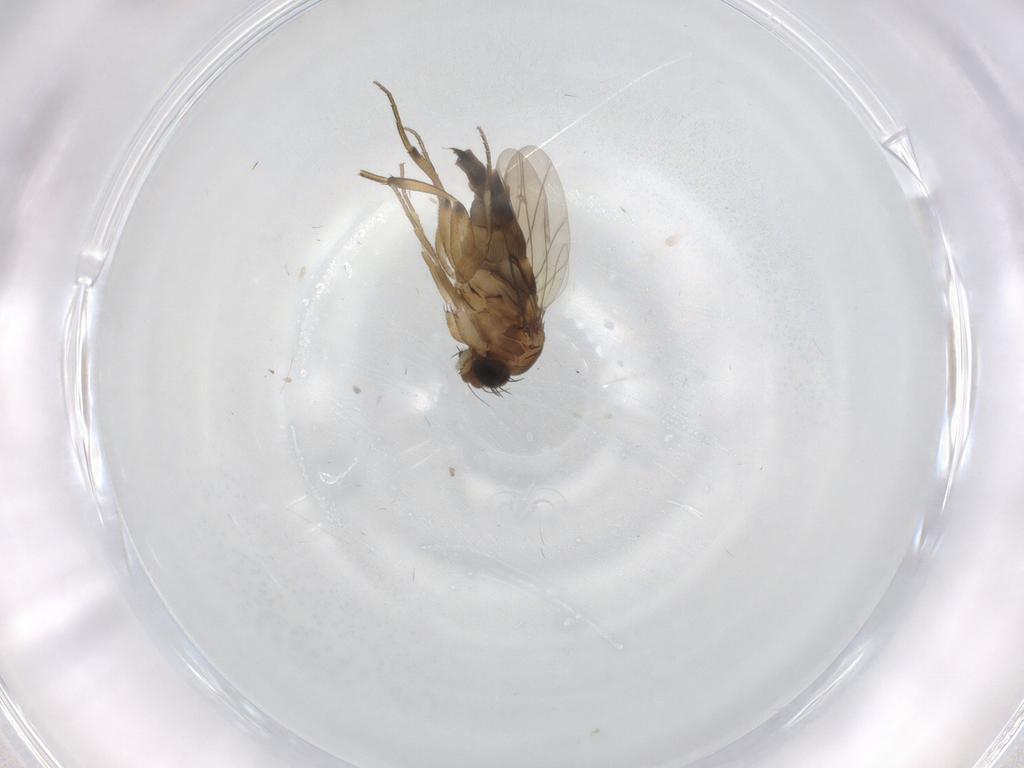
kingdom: Animalia
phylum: Arthropoda
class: Insecta
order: Diptera
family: Phoridae
